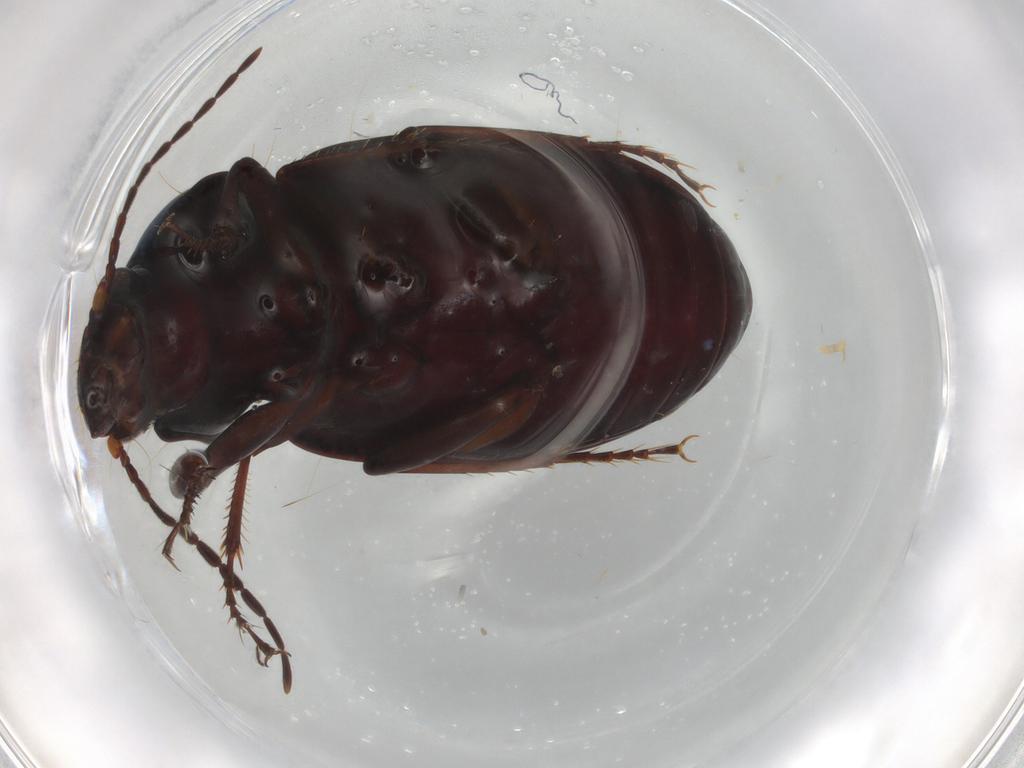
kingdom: Animalia
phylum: Arthropoda
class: Insecta
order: Coleoptera
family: Carabidae
